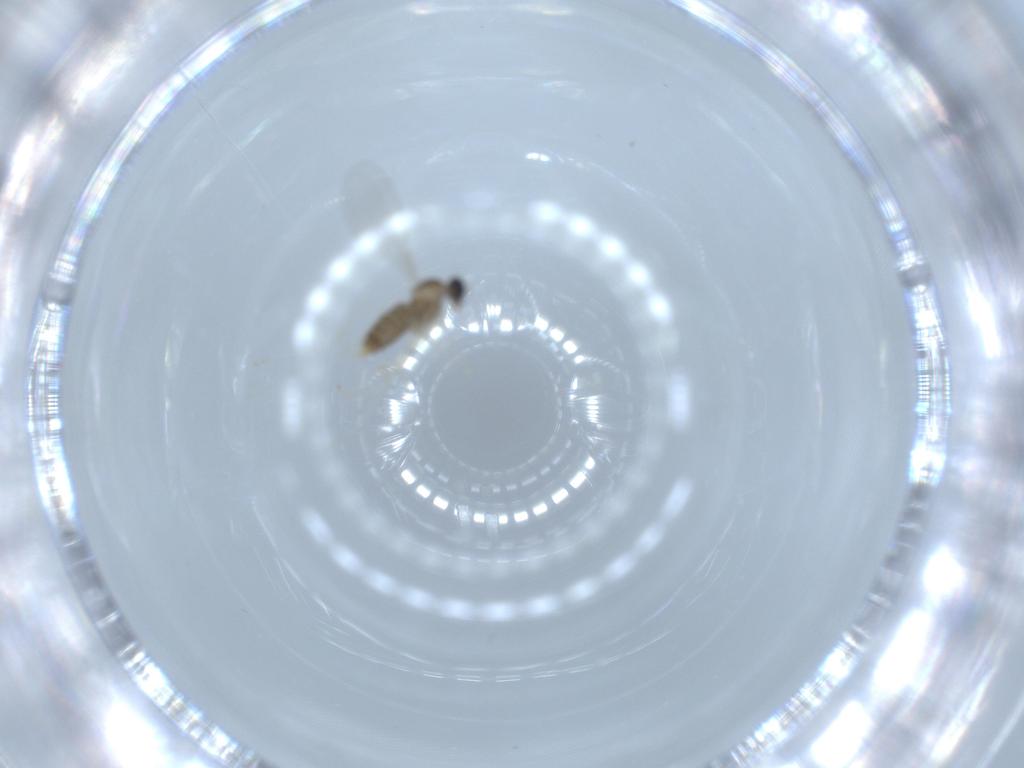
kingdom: Animalia
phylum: Arthropoda
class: Insecta
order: Diptera
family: Cecidomyiidae
